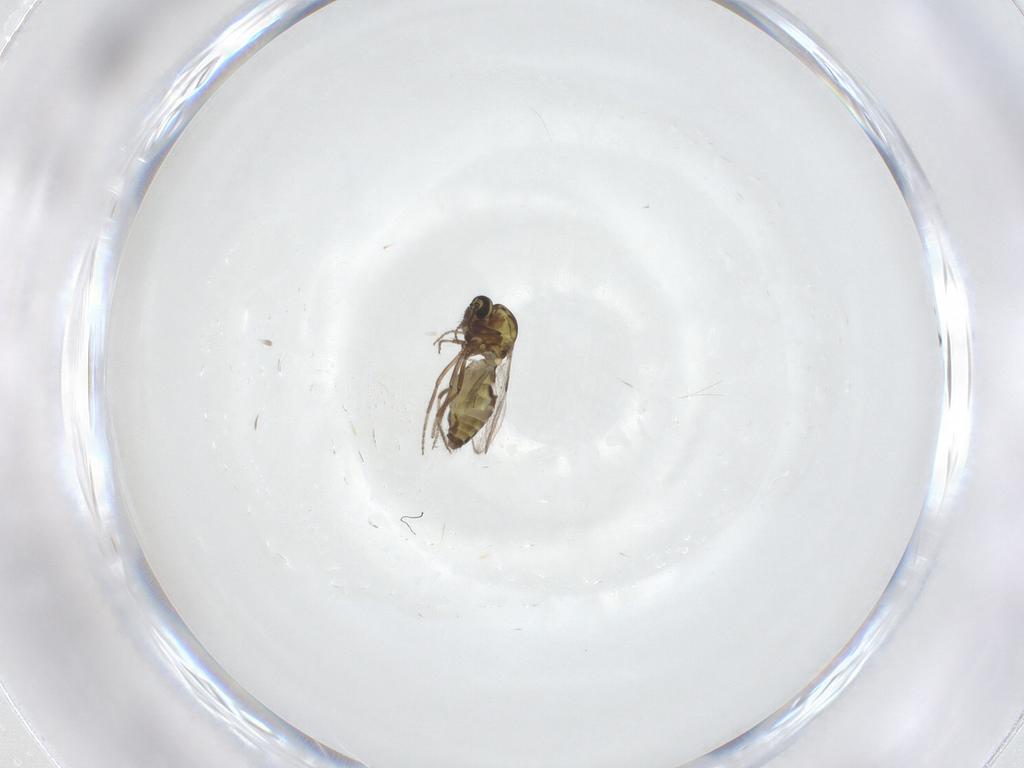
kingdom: Animalia
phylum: Arthropoda
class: Insecta
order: Diptera
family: Ceratopogonidae
